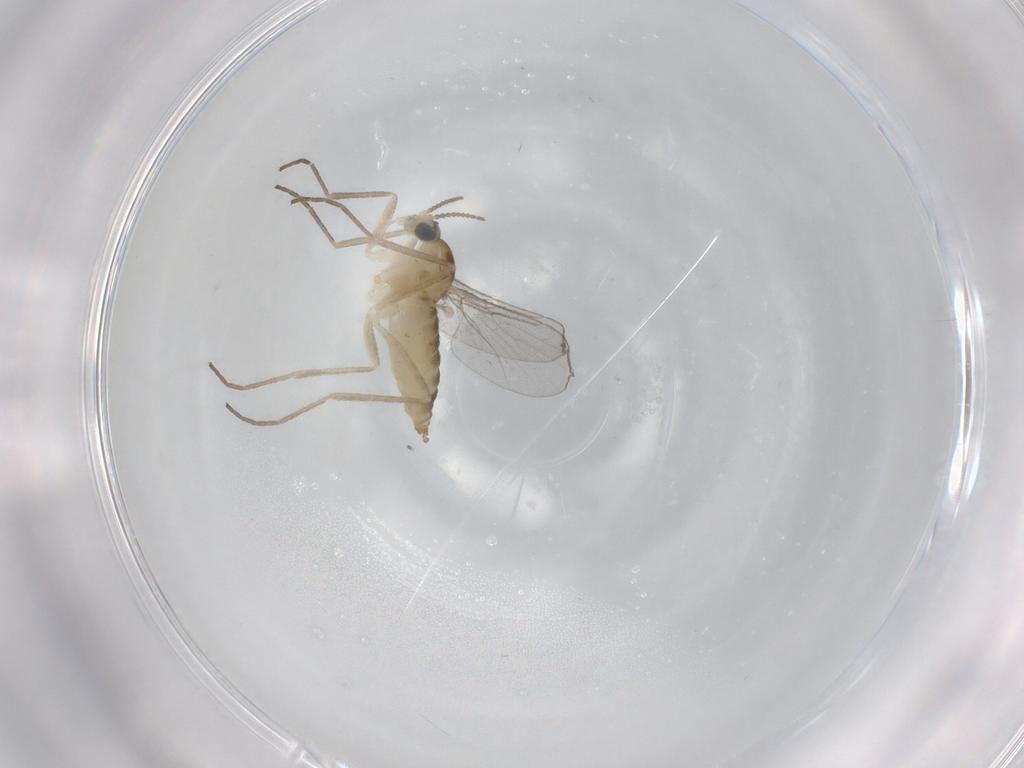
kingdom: Animalia
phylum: Arthropoda
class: Insecta
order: Diptera
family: Cecidomyiidae
